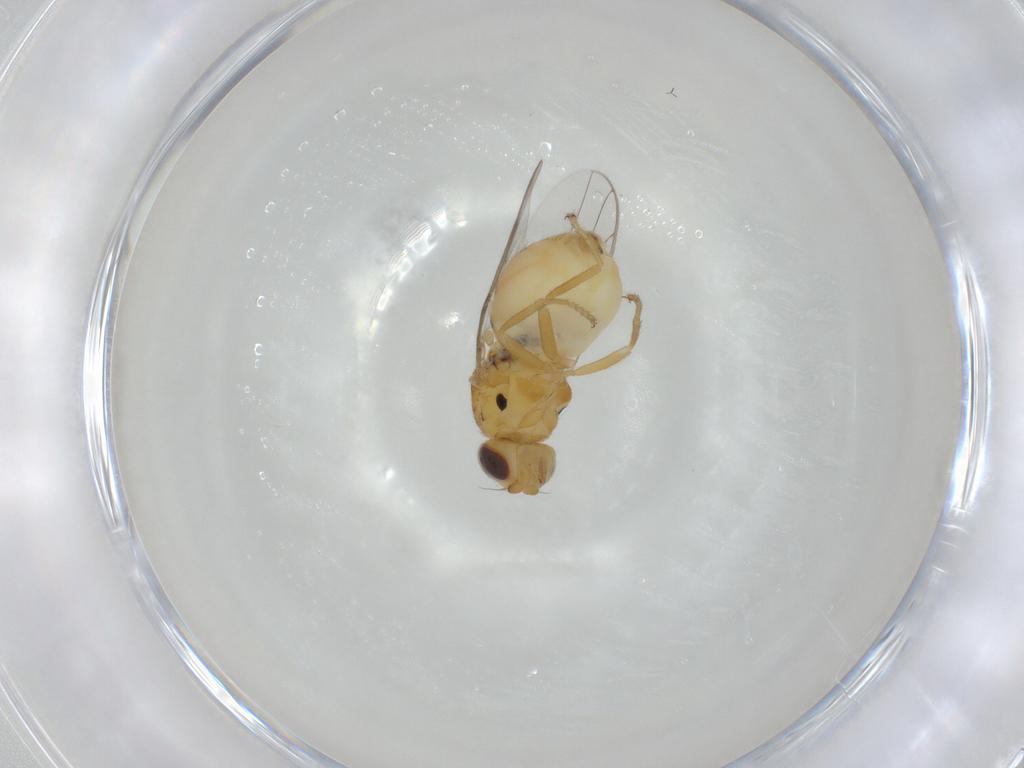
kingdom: Animalia
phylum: Arthropoda
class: Insecta
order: Diptera
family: Chloropidae
